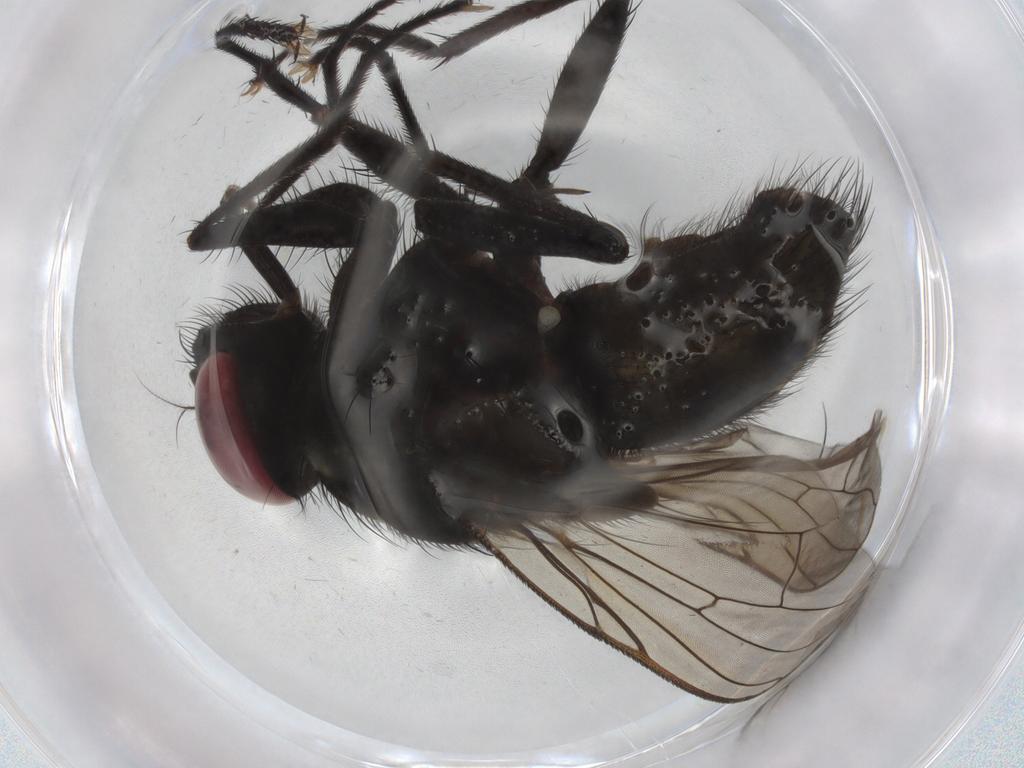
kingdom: Animalia
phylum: Arthropoda
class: Insecta
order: Diptera
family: Muscidae
